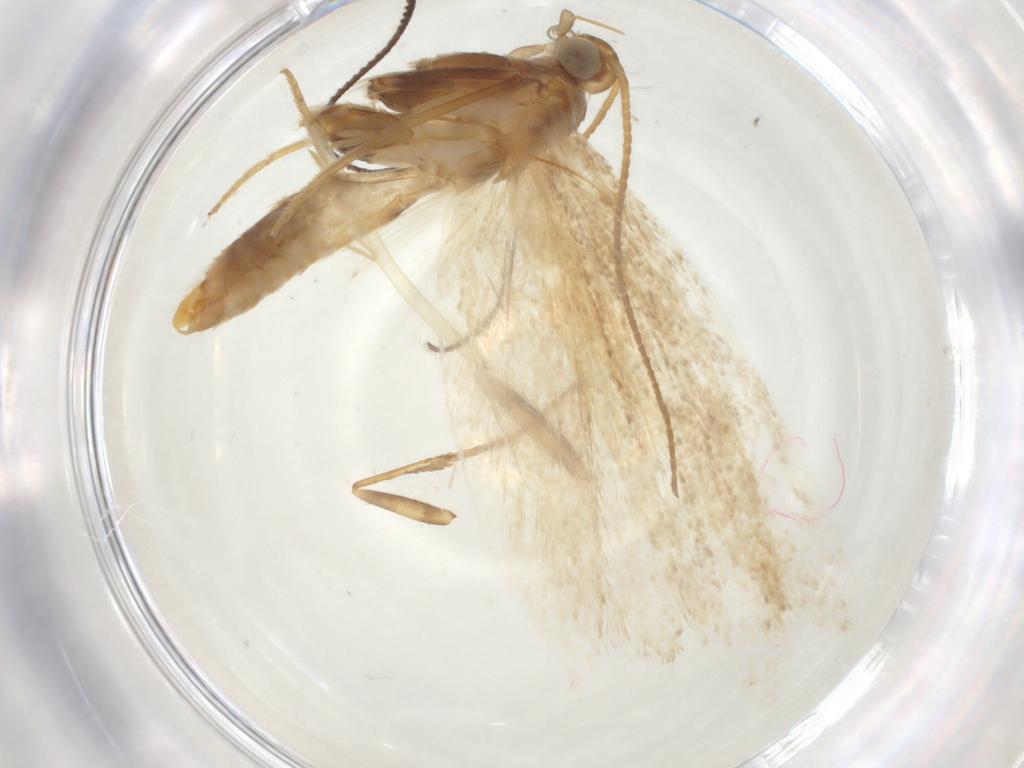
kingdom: Animalia
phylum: Arthropoda
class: Insecta
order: Lepidoptera
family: Autostichidae
